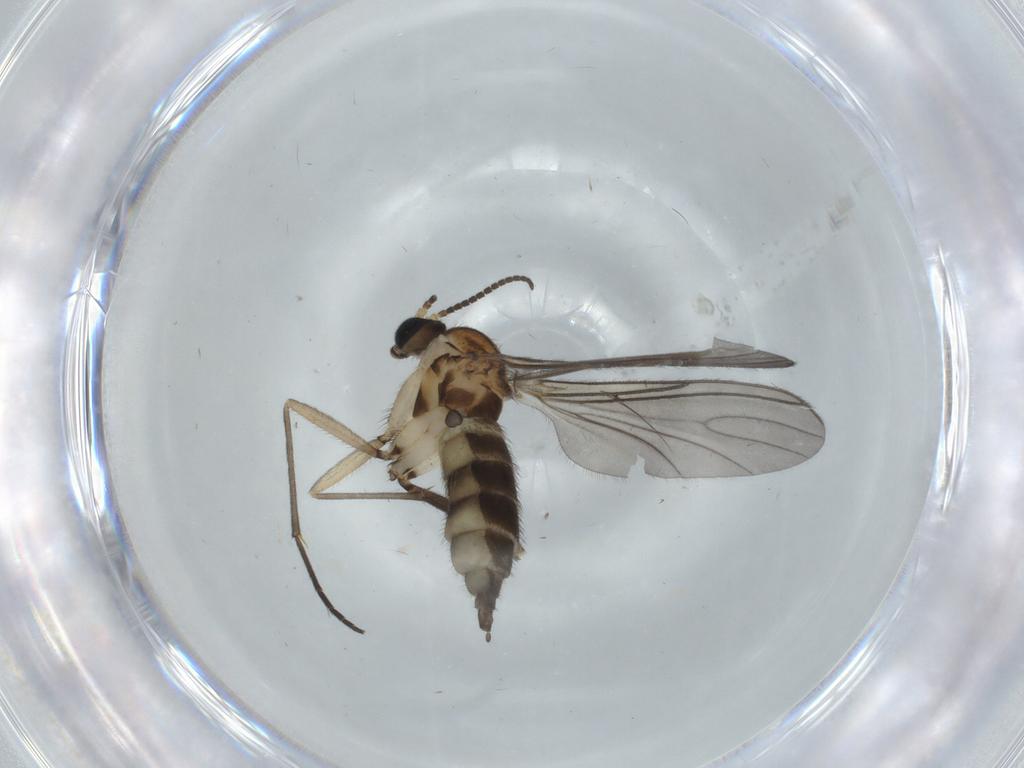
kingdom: Animalia
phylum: Arthropoda
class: Insecta
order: Diptera
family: Sciaridae
